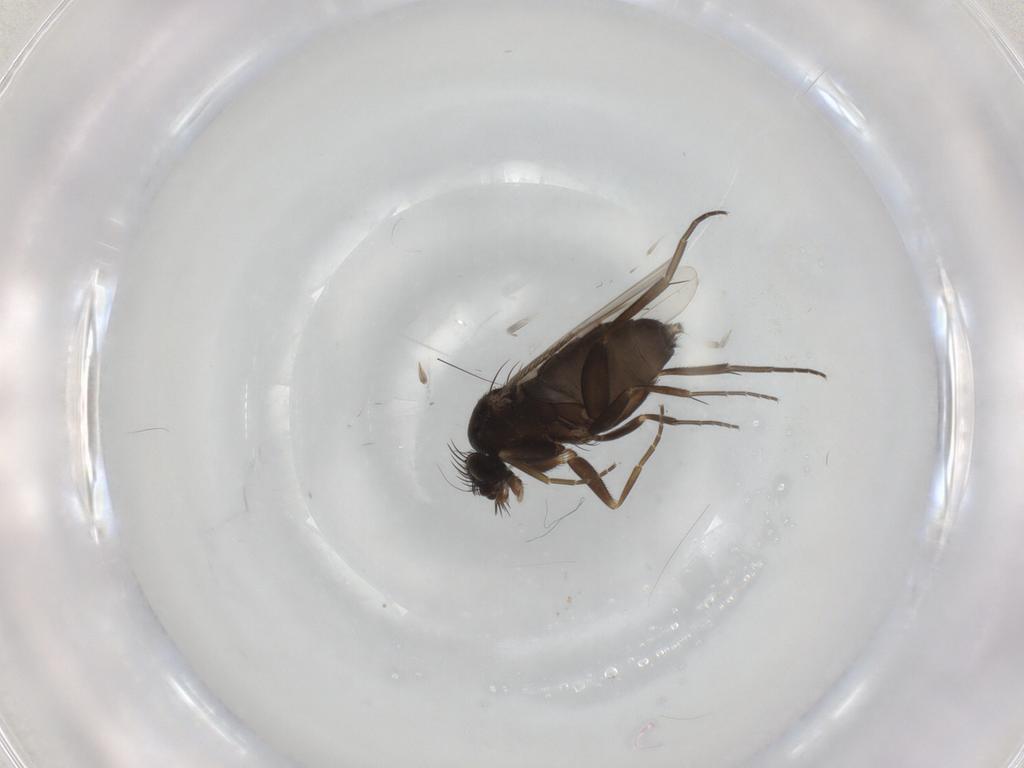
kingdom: Animalia
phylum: Arthropoda
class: Insecta
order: Diptera
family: Phoridae
